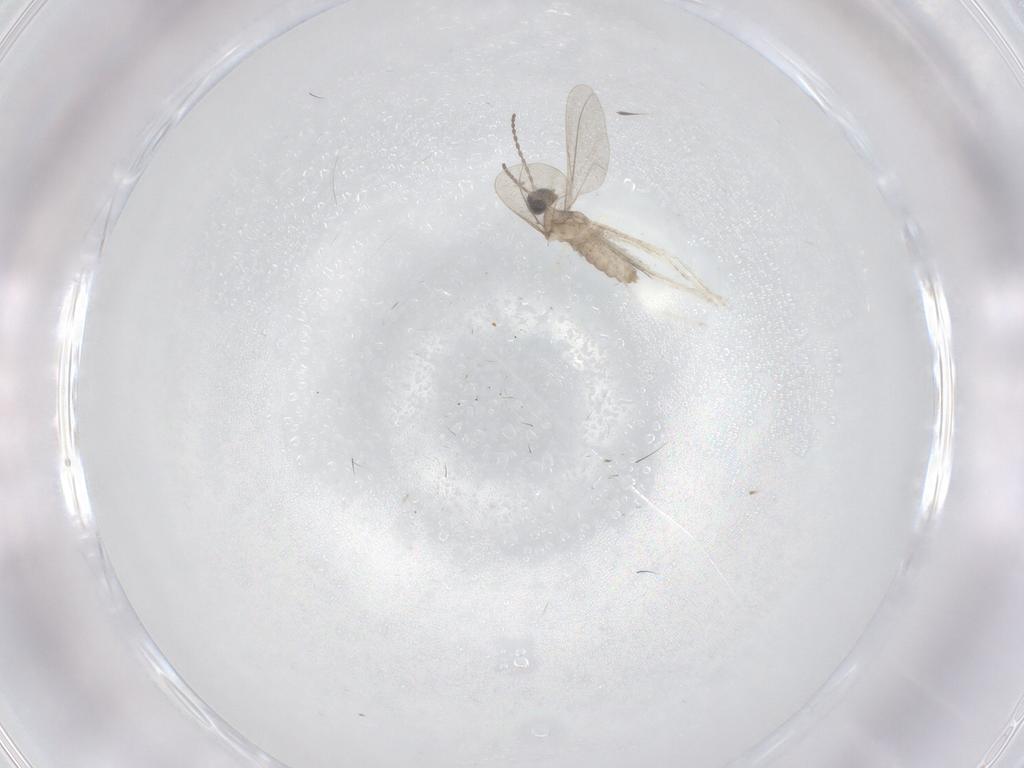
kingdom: Animalia
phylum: Arthropoda
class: Insecta
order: Diptera
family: Cecidomyiidae
